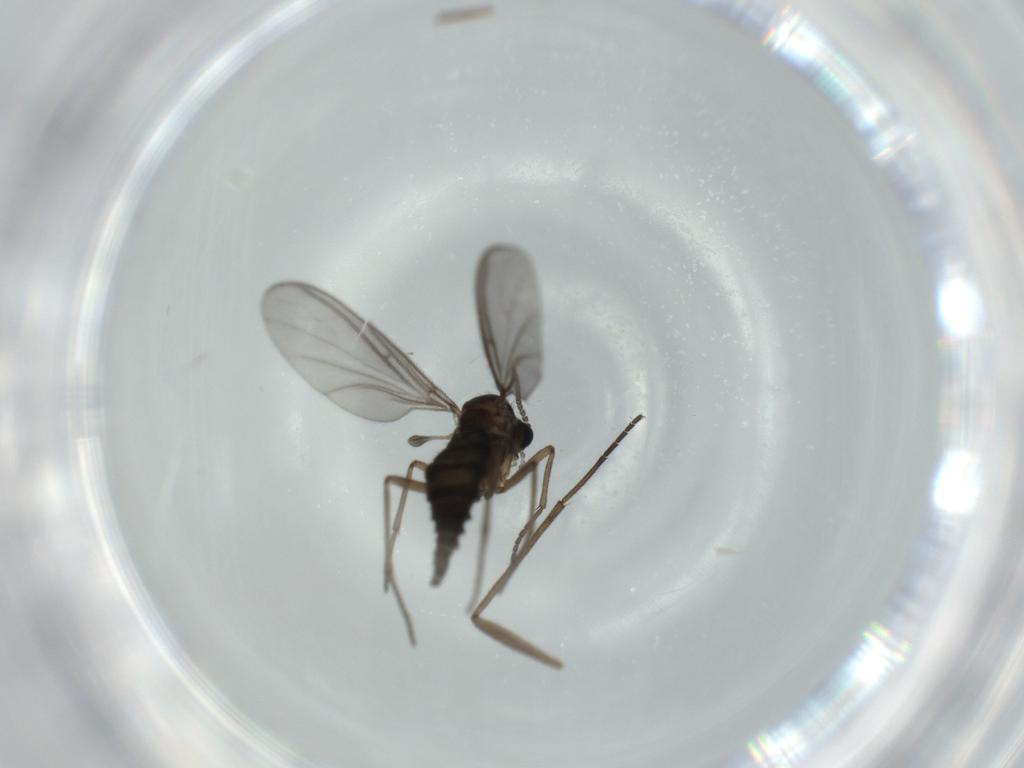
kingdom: Animalia
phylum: Arthropoda
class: Insecta
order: Diptera
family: Sciaridae
